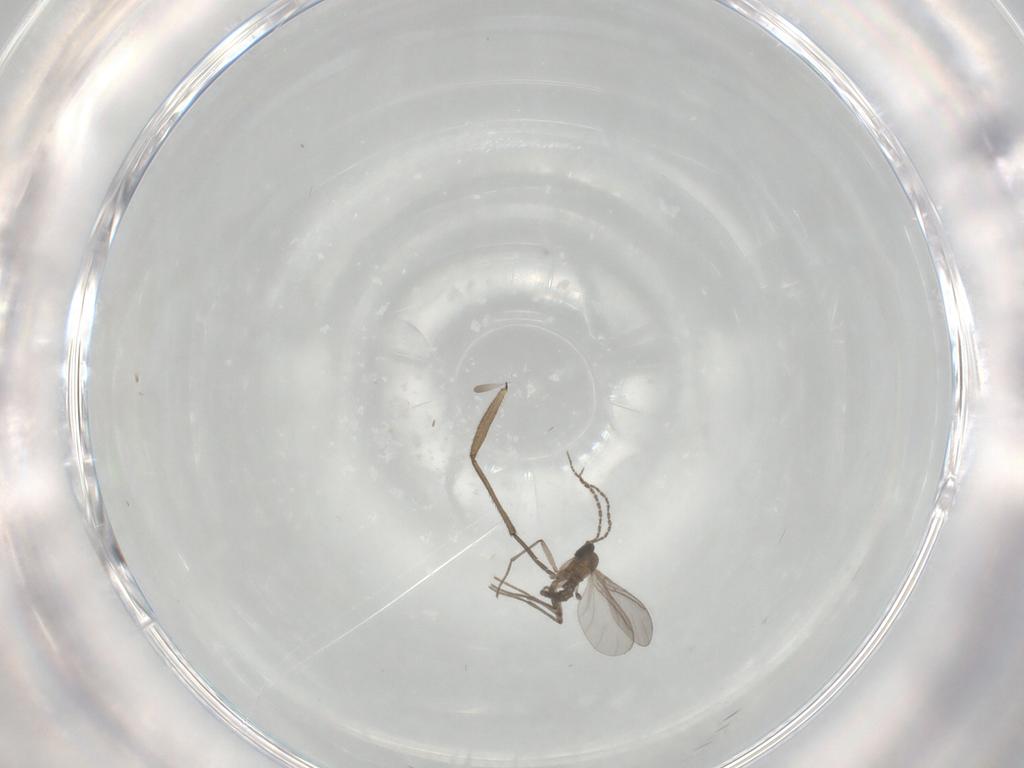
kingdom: Animalia
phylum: Arthropoda
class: Insecta
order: Diptera
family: Sciaridae
